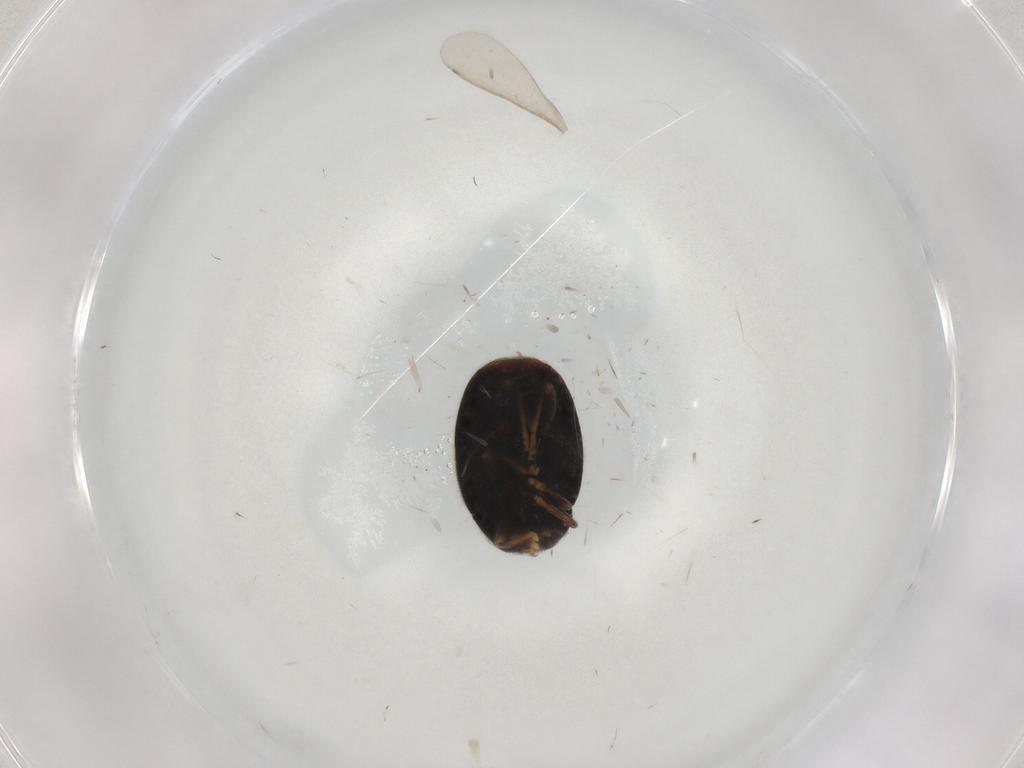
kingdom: Animalia
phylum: Arthropoda
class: Insecta
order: Coleoptera
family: Coccinellidae
